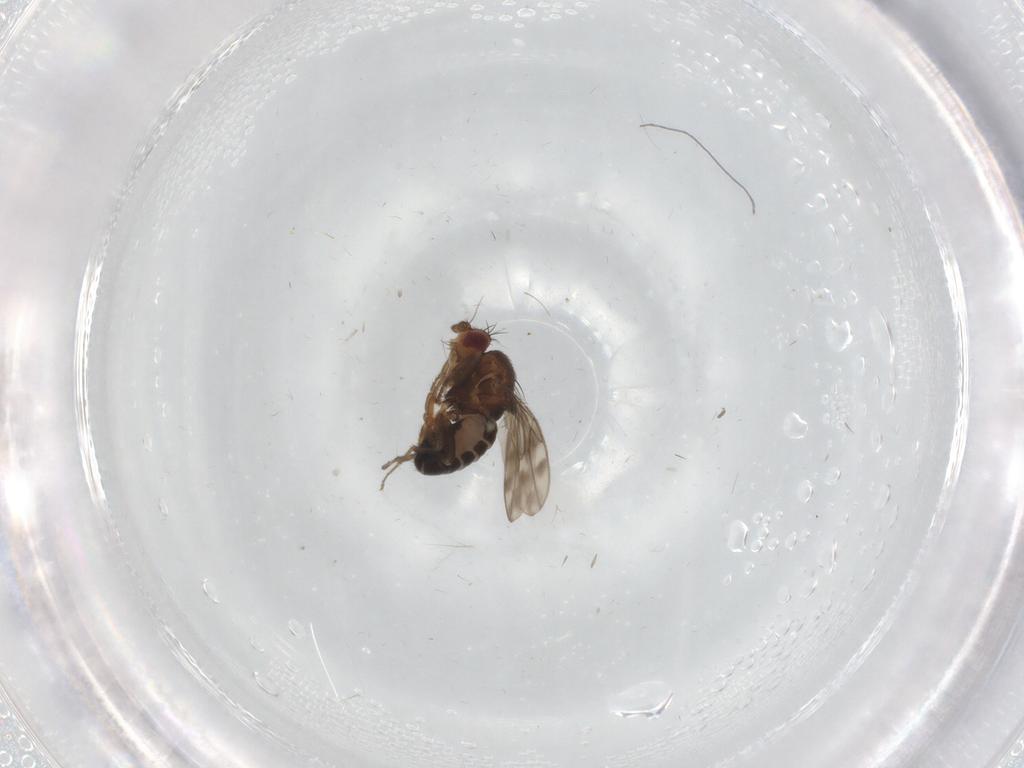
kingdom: Animalia
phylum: Arthropoda
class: Insecta
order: Diptera
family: Sphaeroceridae
